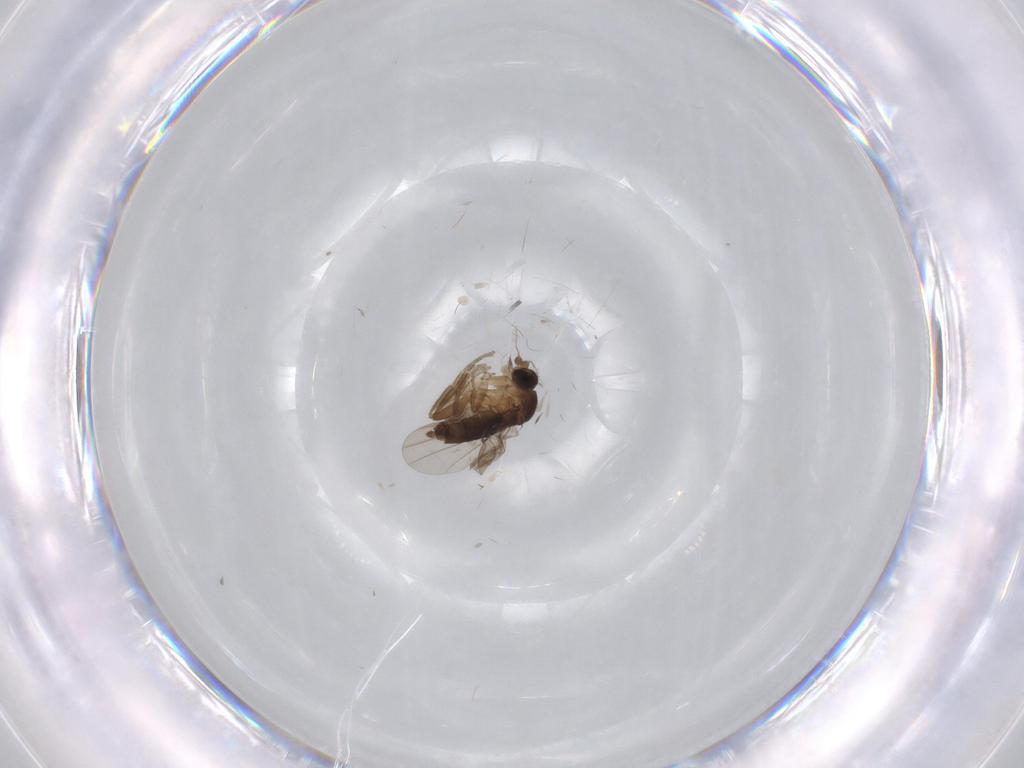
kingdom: Animalia
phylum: Arthropoda
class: Insecta
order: Diptera
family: Phoridae
